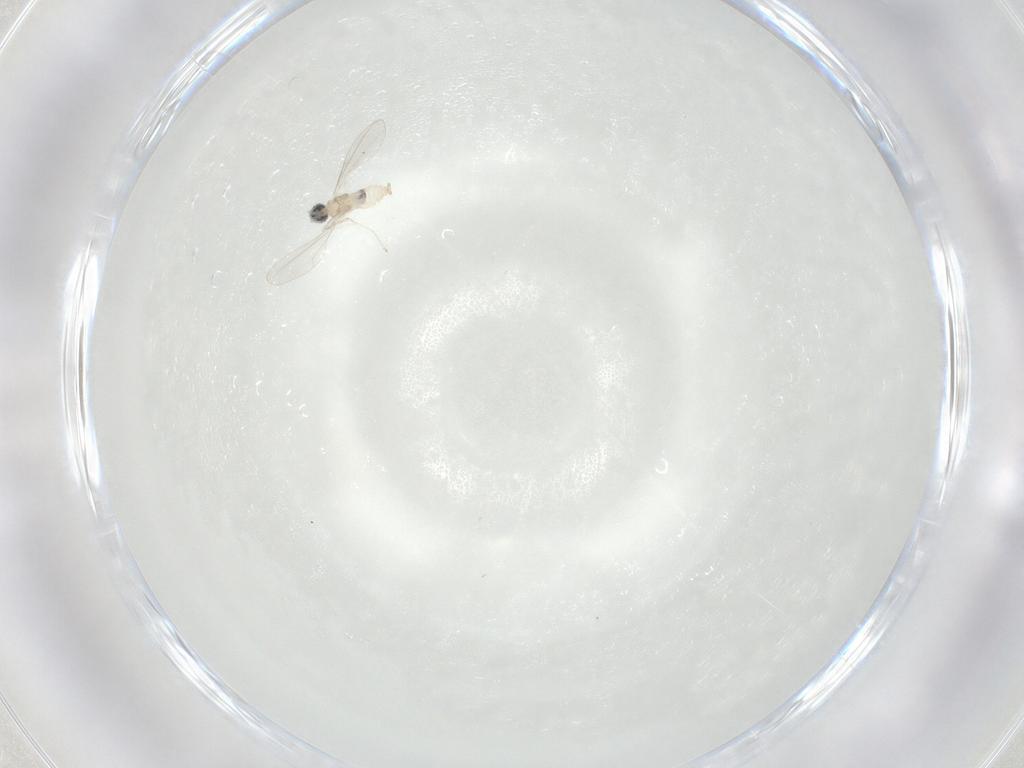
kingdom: Animalia
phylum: Arthropoda
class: Insecta
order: Diptera
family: Cecidomyiidae
